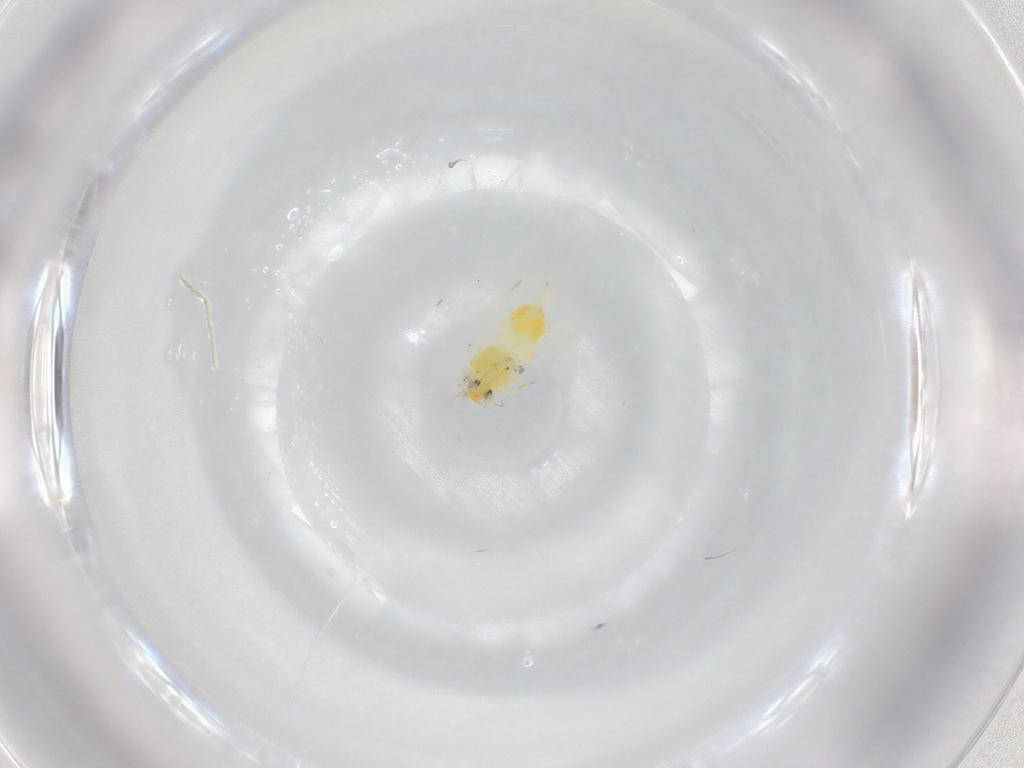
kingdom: Animalia
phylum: Arthropoda
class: Insecta
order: Hemiptera
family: Aleyrodidae
